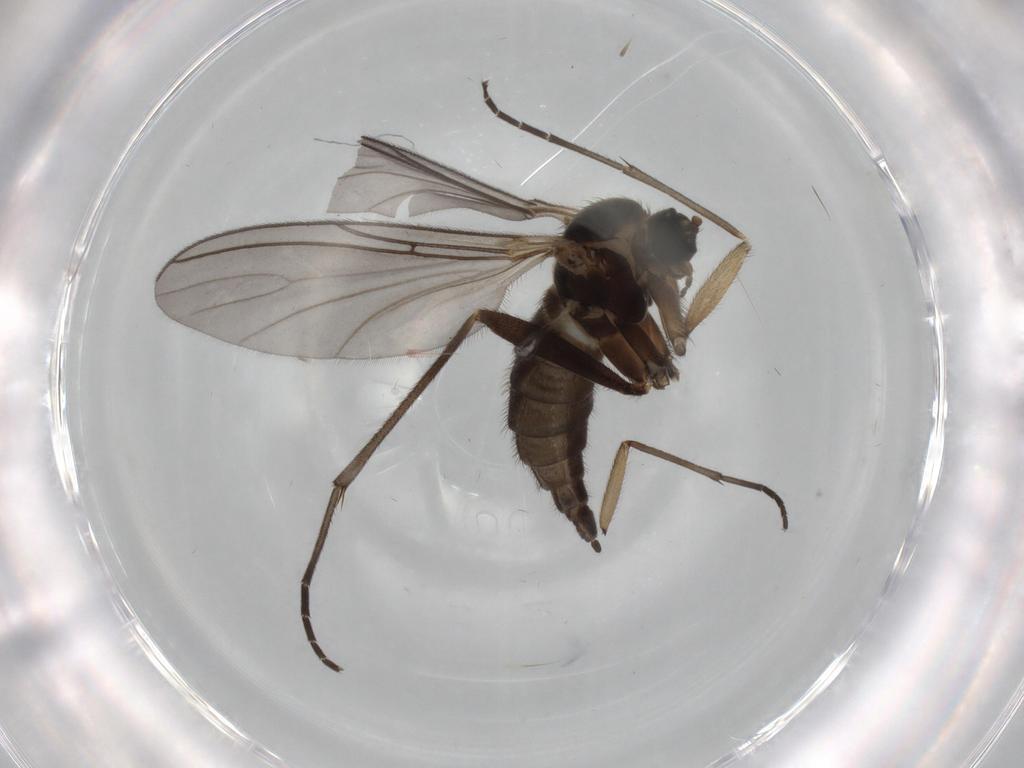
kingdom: Animalia
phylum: Arthropoda
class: Insecta
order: Diptera
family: Sciaridae
